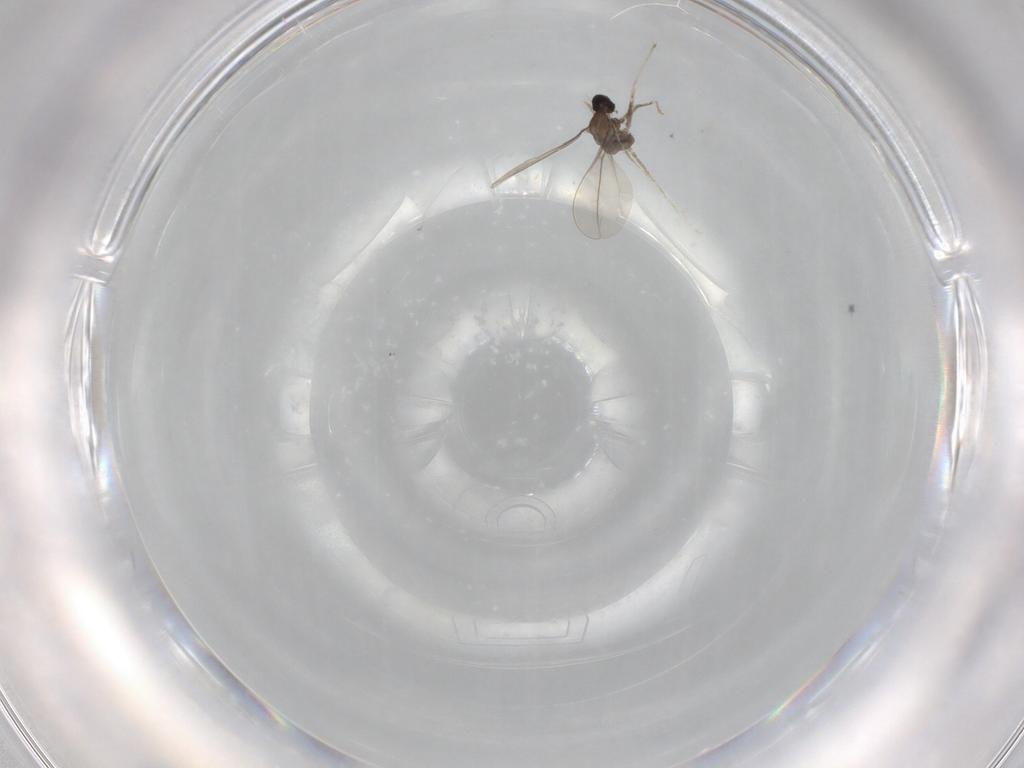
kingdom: Animalia
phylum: Arthropoda
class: Insecta
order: Diptera
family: Cecidomyiidae
